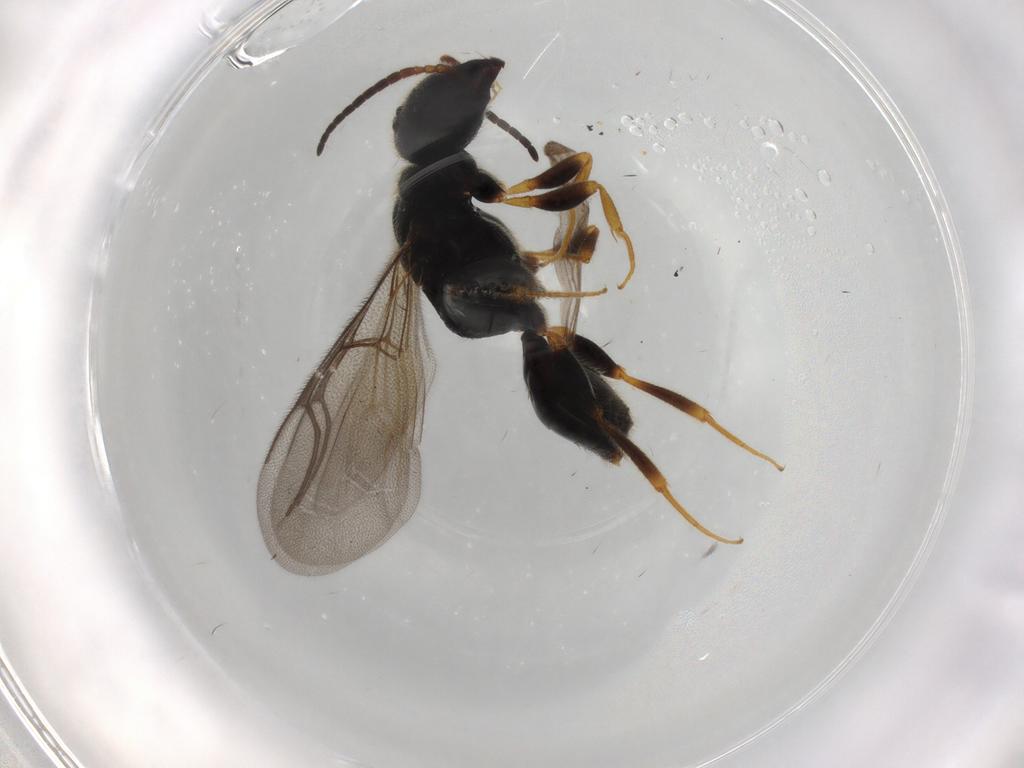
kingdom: Animalia
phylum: Arthropoda
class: Insecta
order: Hymenoptera
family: Bethylidae
